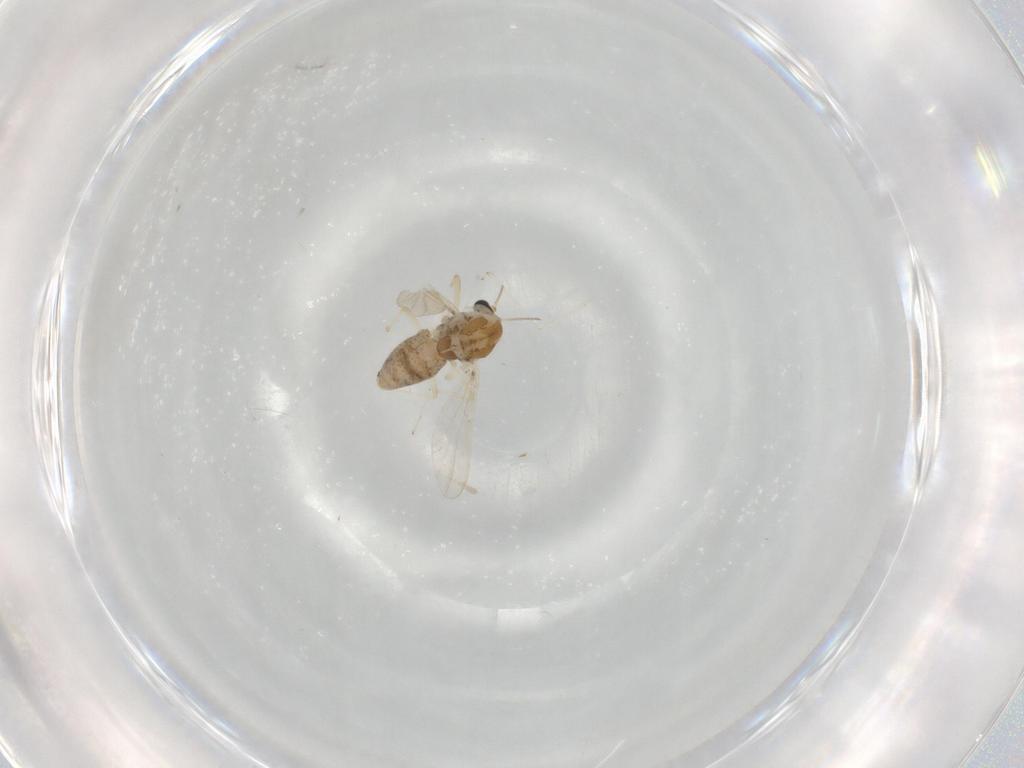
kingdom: Animalia
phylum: Arthropoda
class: Insecta
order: Diptera
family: Chironomidae
